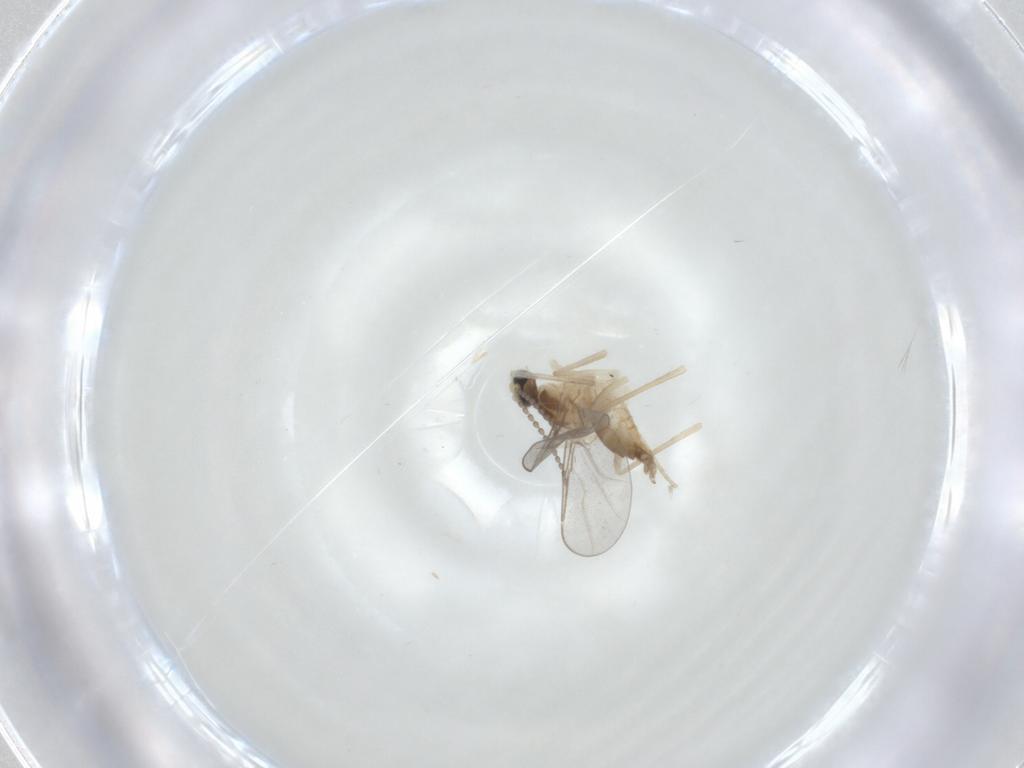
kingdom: Animalia
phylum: Arthropoda
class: Insecta
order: Diptera
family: Cecidomyiidae
